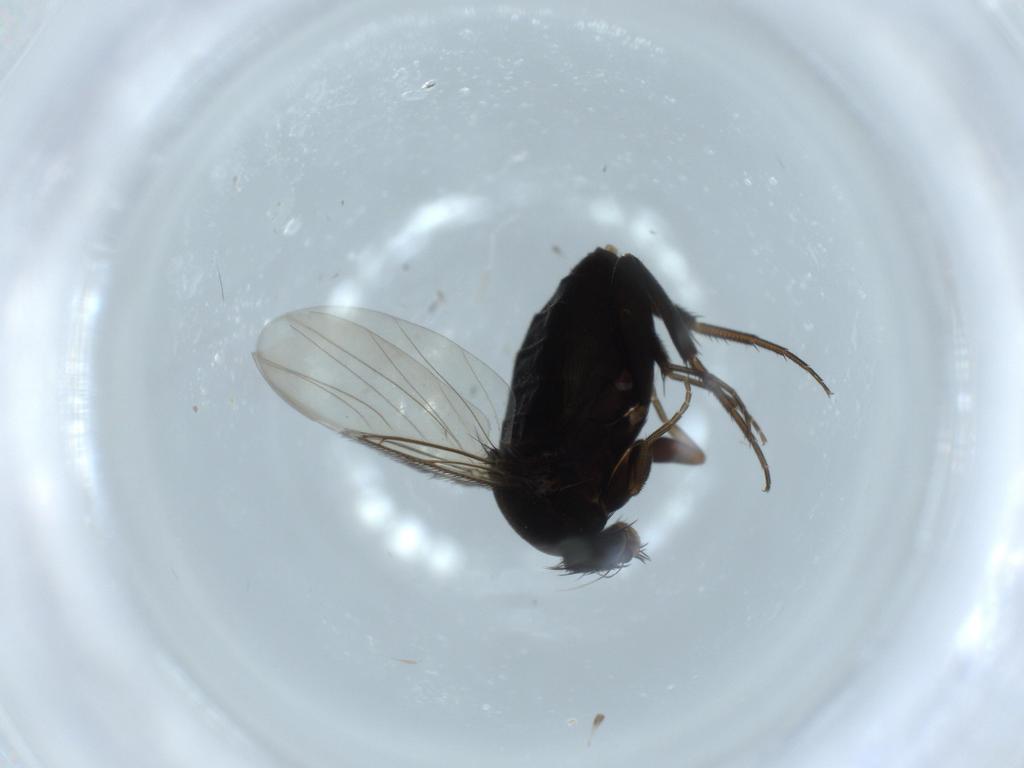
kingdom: Animalia
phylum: Arthropoda
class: Insecta
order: Diptera
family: Phoridae
